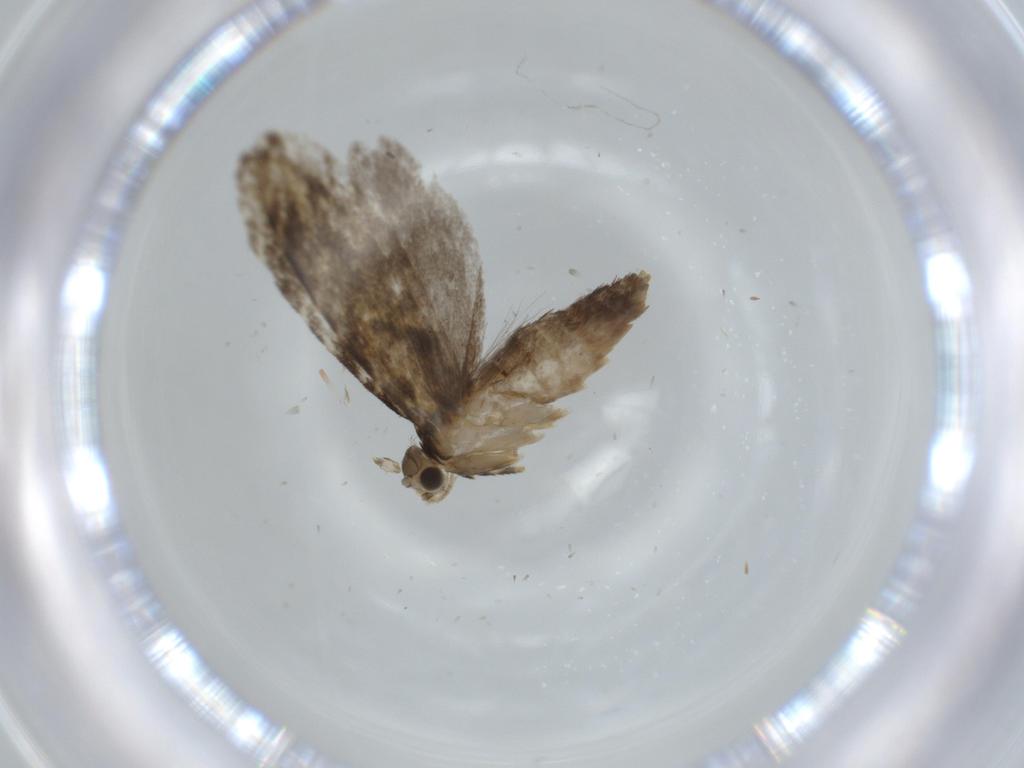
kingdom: Animalia
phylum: Arthropoda
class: Insecta
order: Lepidoptera
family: Tineidae
